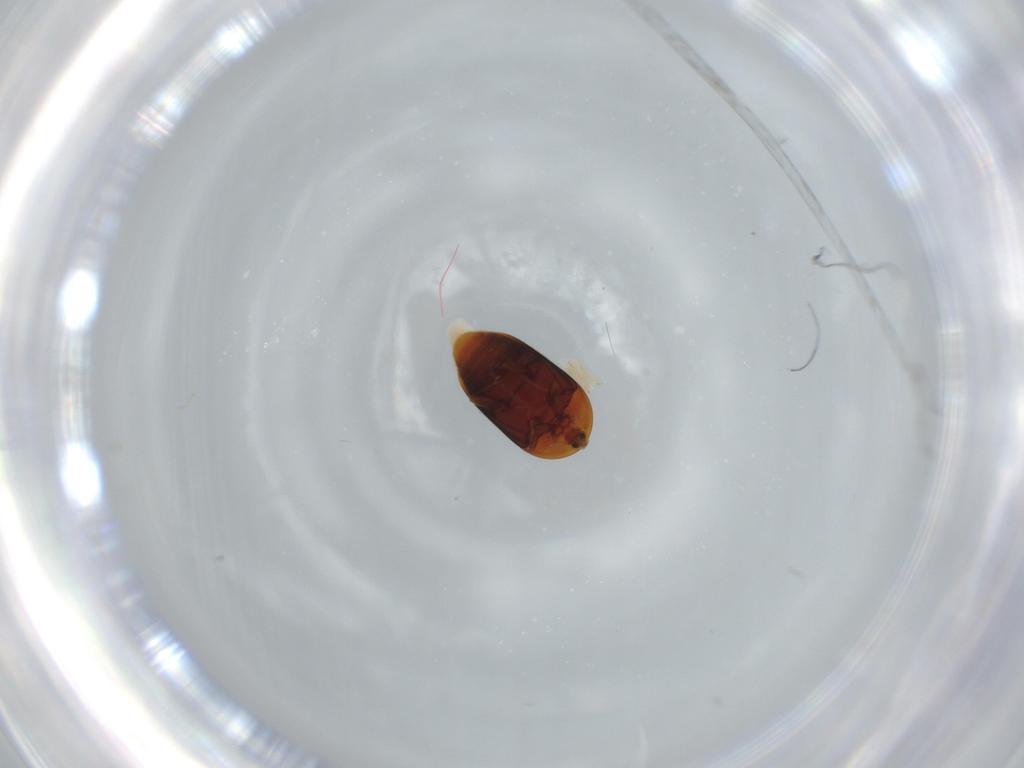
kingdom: Animalia
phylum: Arthropoda
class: Insecta
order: Coleoptera
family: Corylophidae
